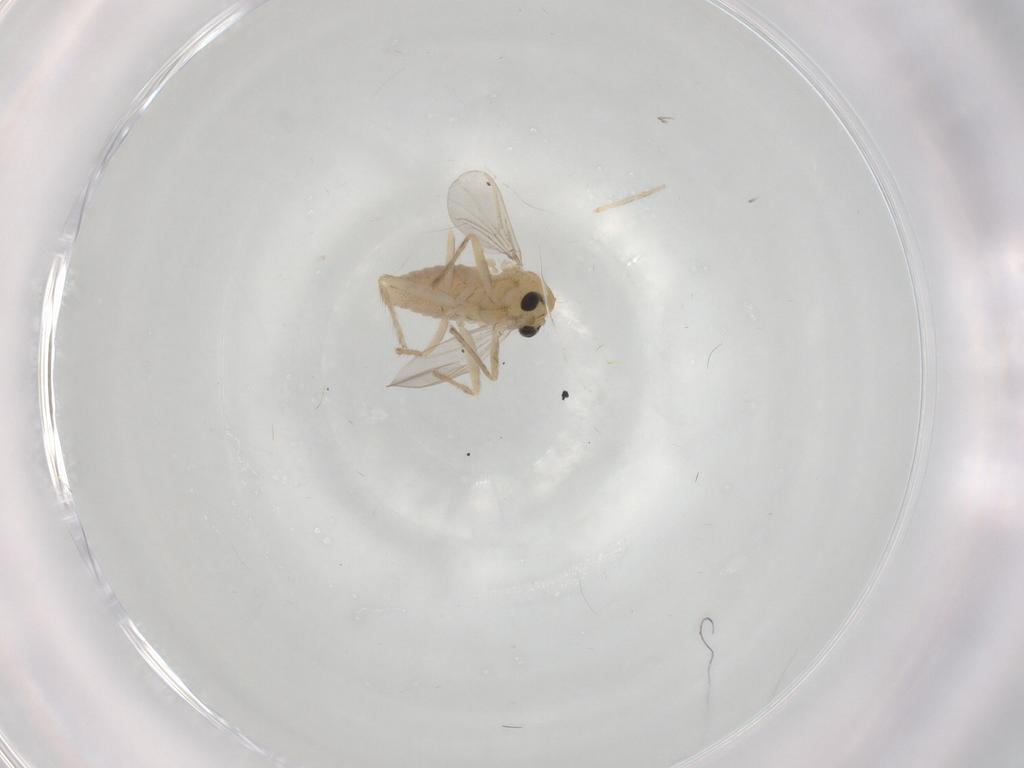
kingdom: Animalia
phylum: Arthropoda
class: Insecta
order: Diptera
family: Chironomidae
